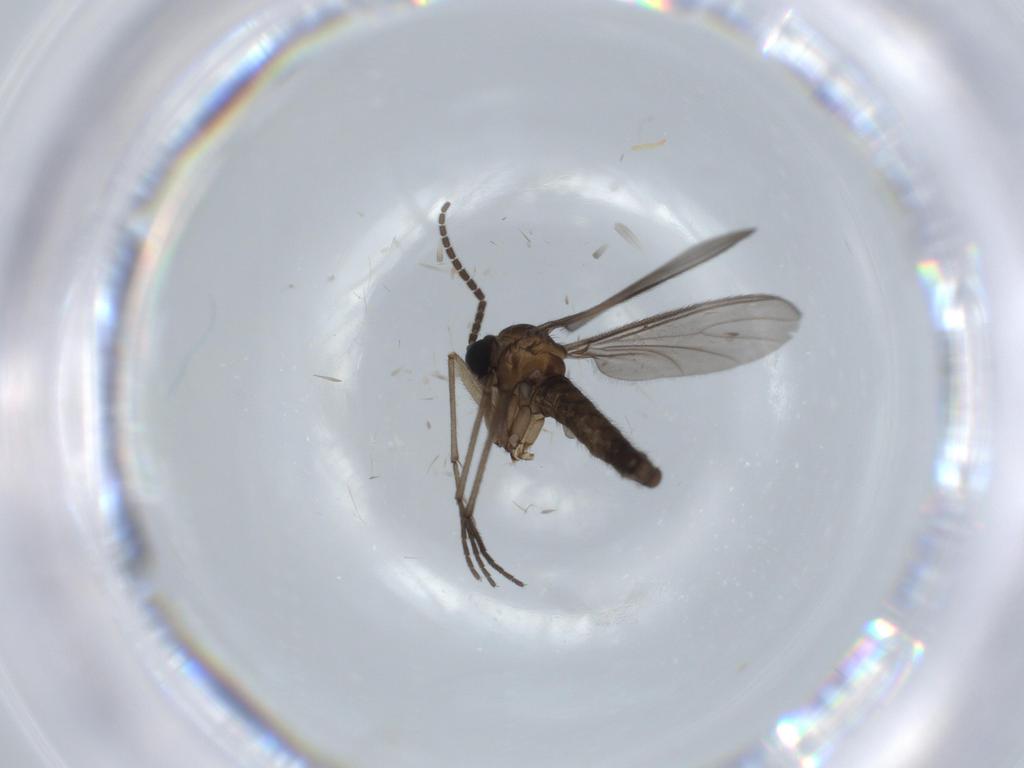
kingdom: Animalia
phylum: Arthropoda
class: Insecta
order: Diptera
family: Sciaridae
